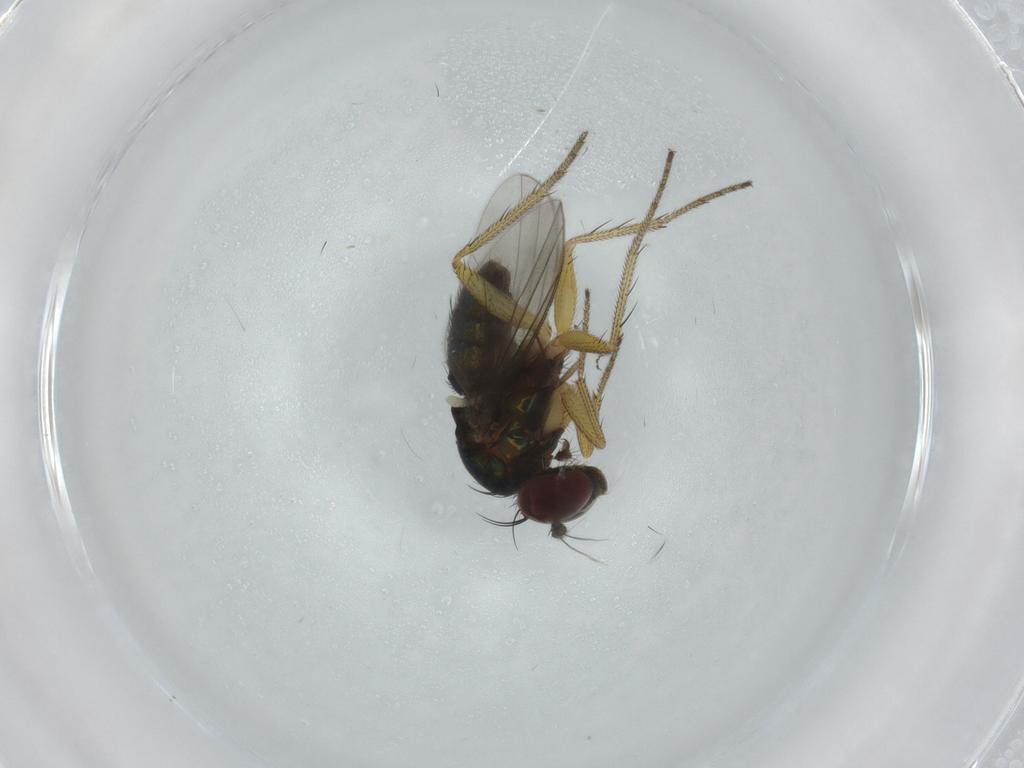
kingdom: Animalia
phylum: Arthropoda
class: Insecta
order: Diptera
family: Dolichopodidae
